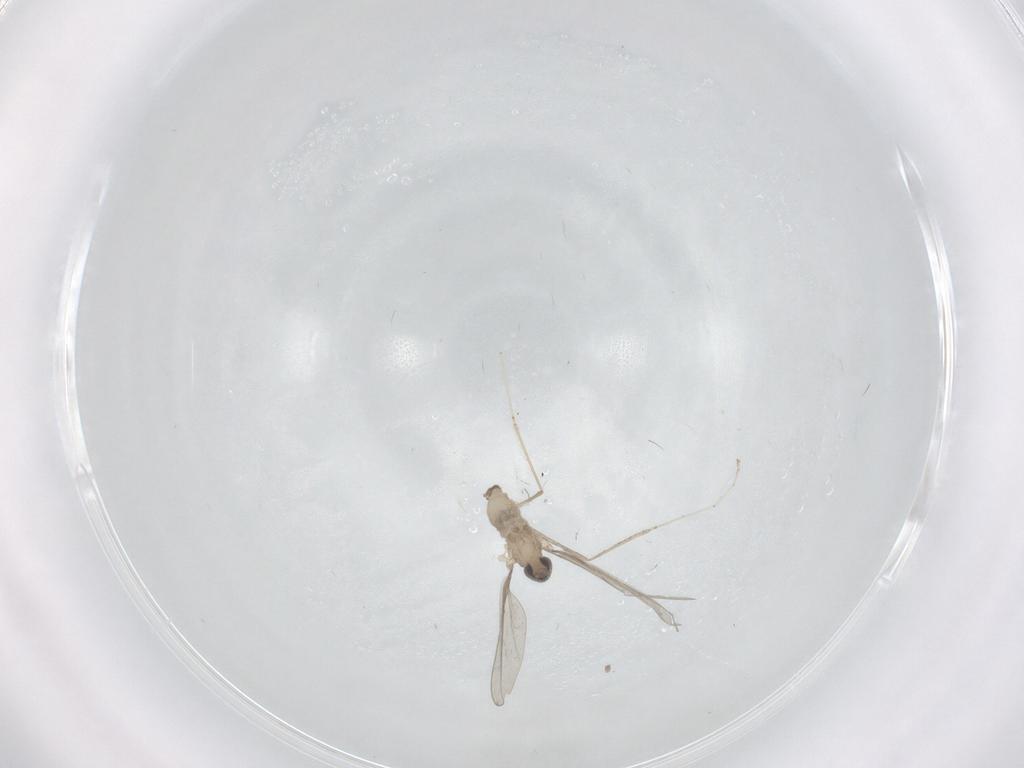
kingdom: Animalia
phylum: Arthropoda
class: Insecta
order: Diptera
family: Cecidomyiidae
